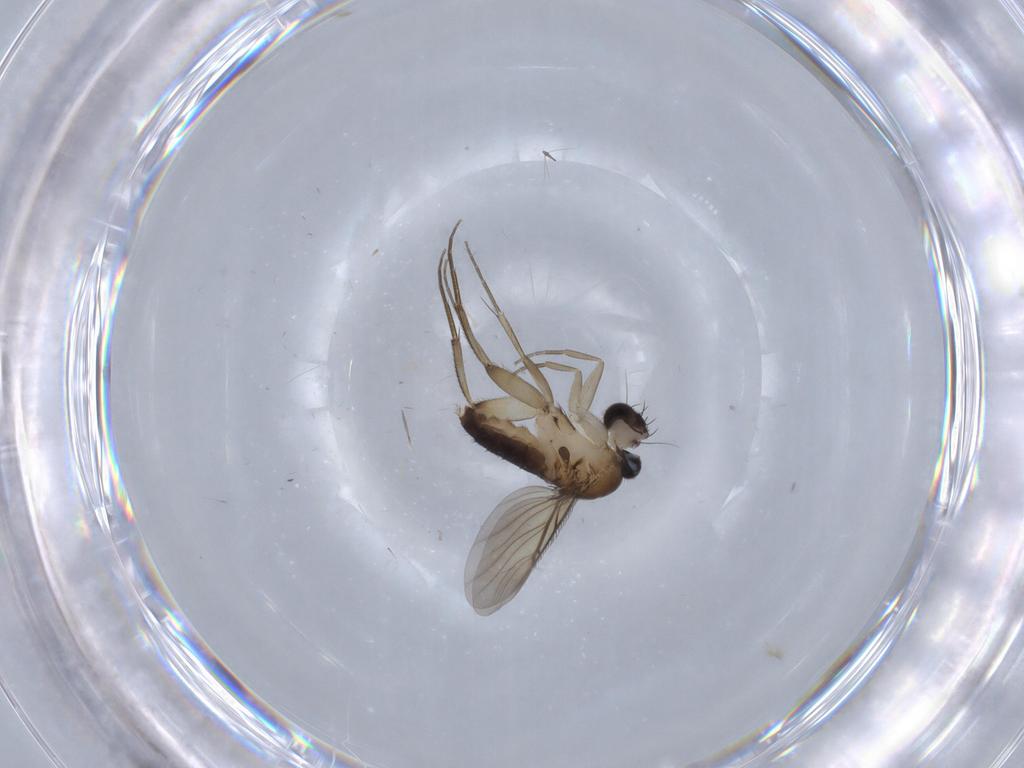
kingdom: Animalia
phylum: Arthropoda
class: Insecta
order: Diptera
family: Phoridae
